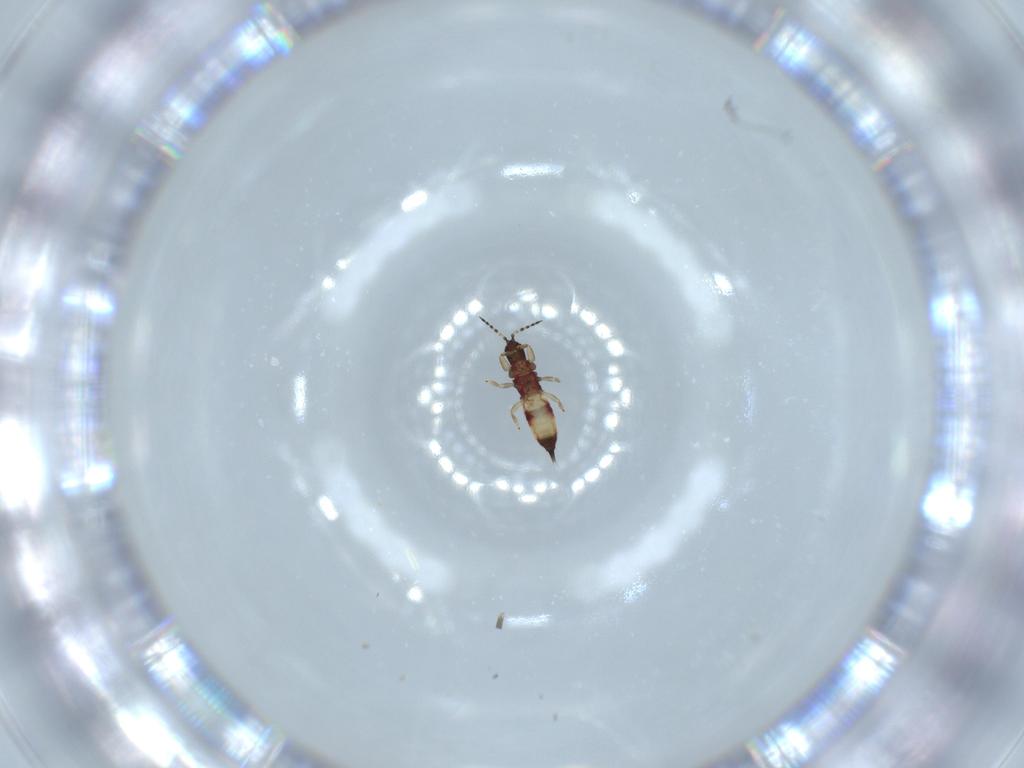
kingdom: Animalia
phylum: Arthropoda
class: Insecta
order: Thysanoptera
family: Phlaeothripidae
